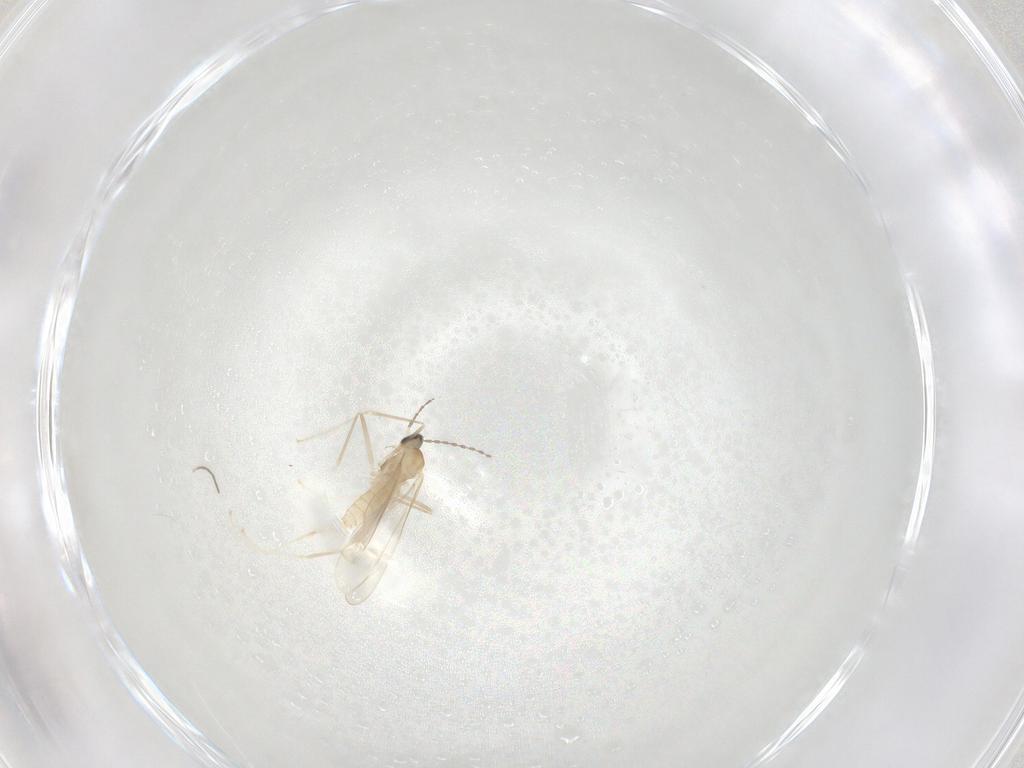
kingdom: Animalia
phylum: Arthropoda
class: Insecta
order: Diptera
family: Cecidomyiidae
